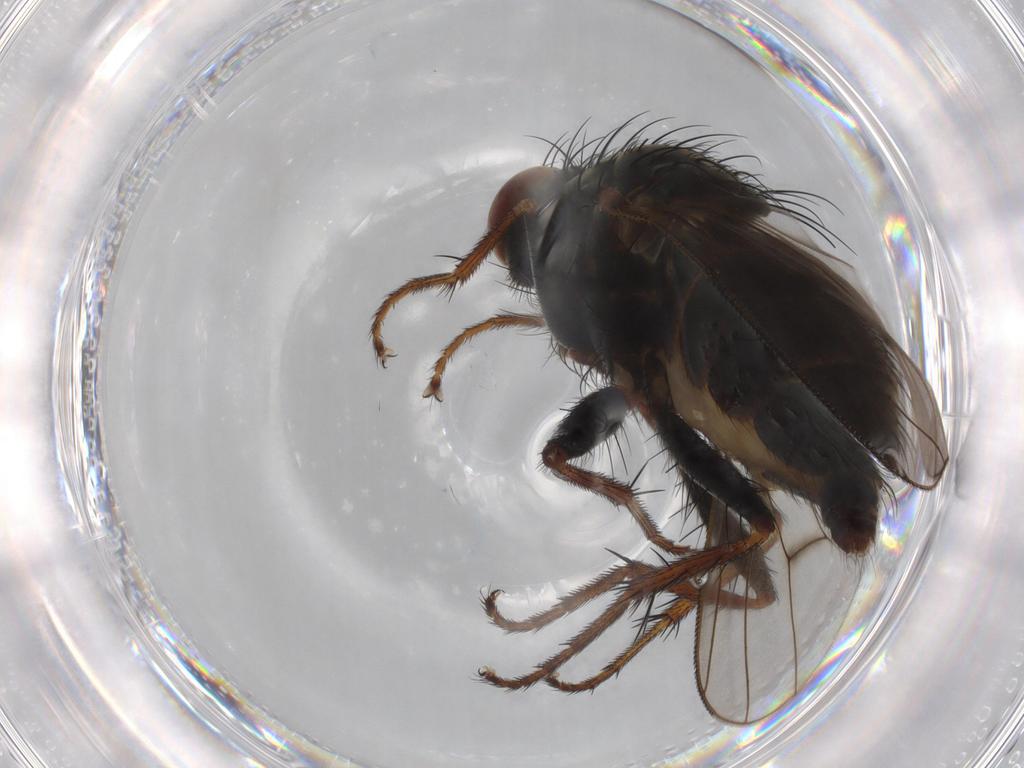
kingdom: Animalia
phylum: Arthropoda
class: Insecta
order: Diptera
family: Muscidae
